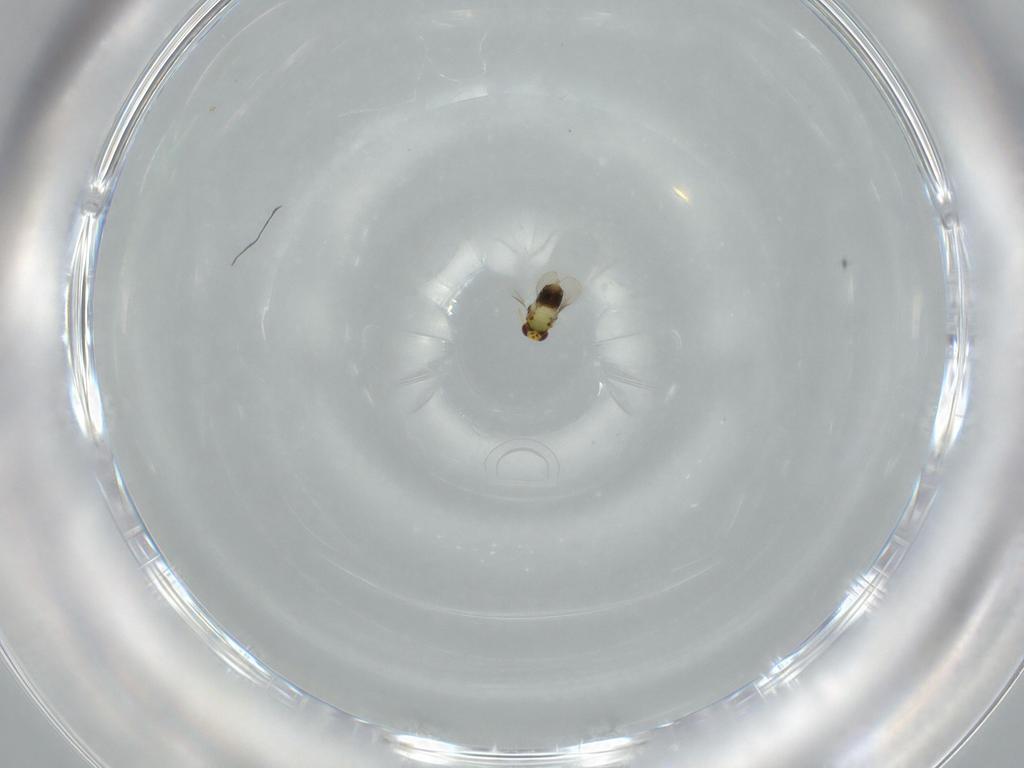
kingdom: Animalia
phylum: Arthropoda
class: Insecta
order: Hymenoptera
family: Aphelinidae
